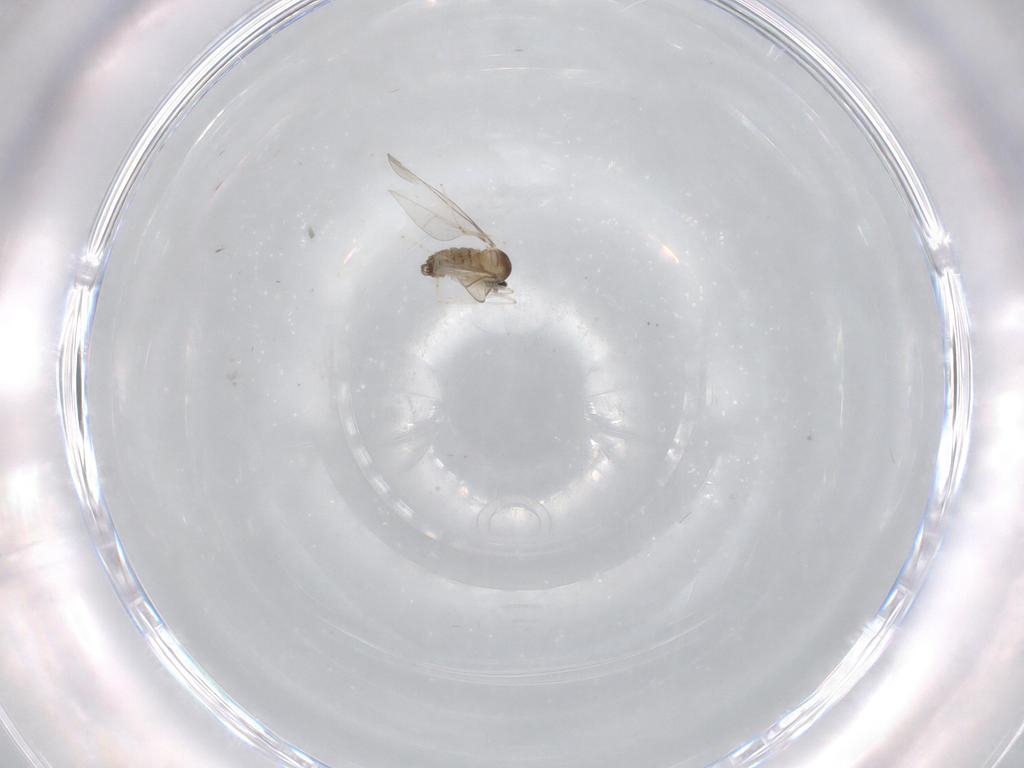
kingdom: Animalia
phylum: Arthropoda
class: Insecta
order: Diptera
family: Cecidomyiidae
